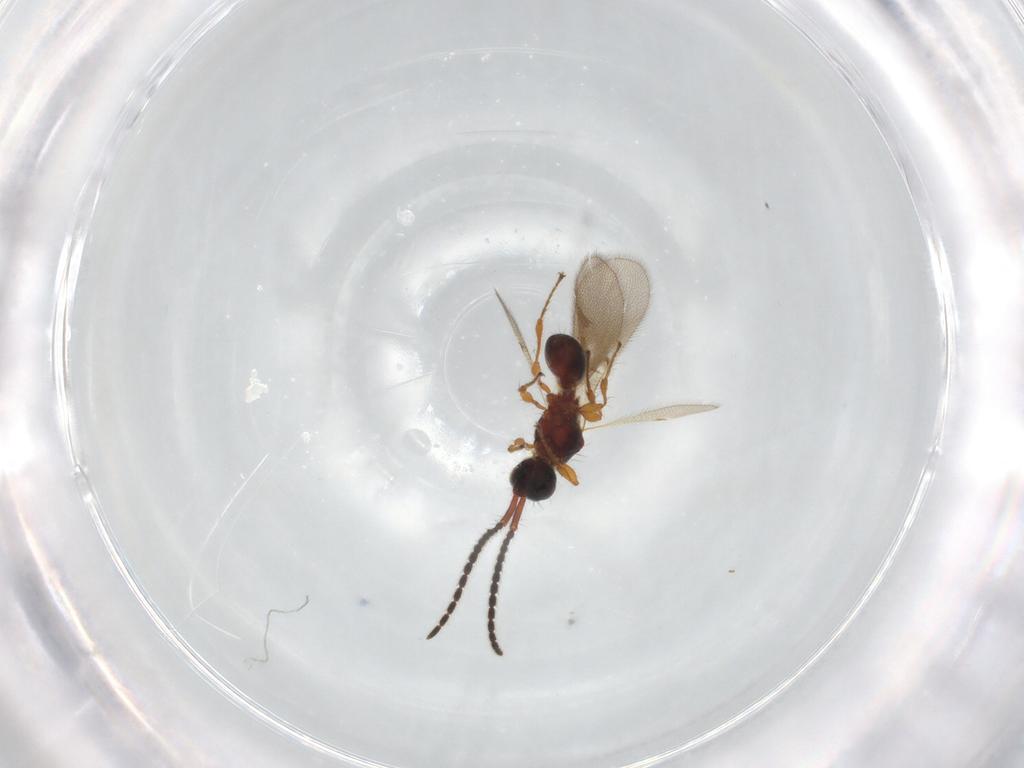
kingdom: Animalia
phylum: Arthropoda
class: Insecta
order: Hymenoptera
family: Diapriidae
